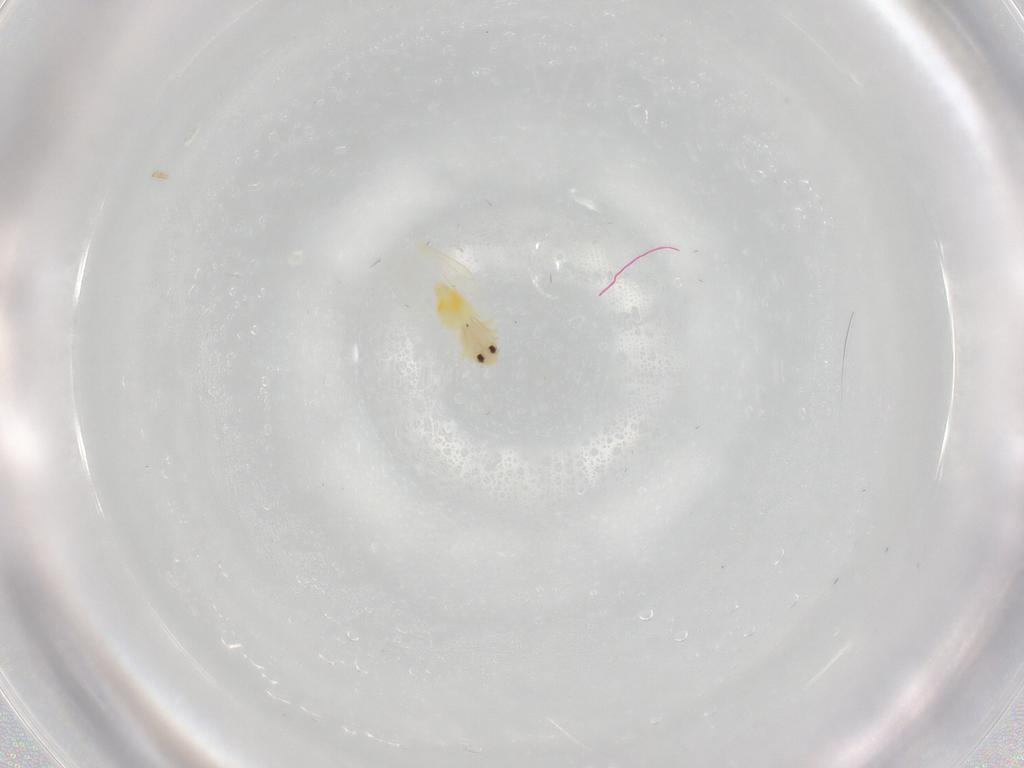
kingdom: Animalia
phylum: Arthropoda
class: Insecta
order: Hemiptera
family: Aleyrodidae
